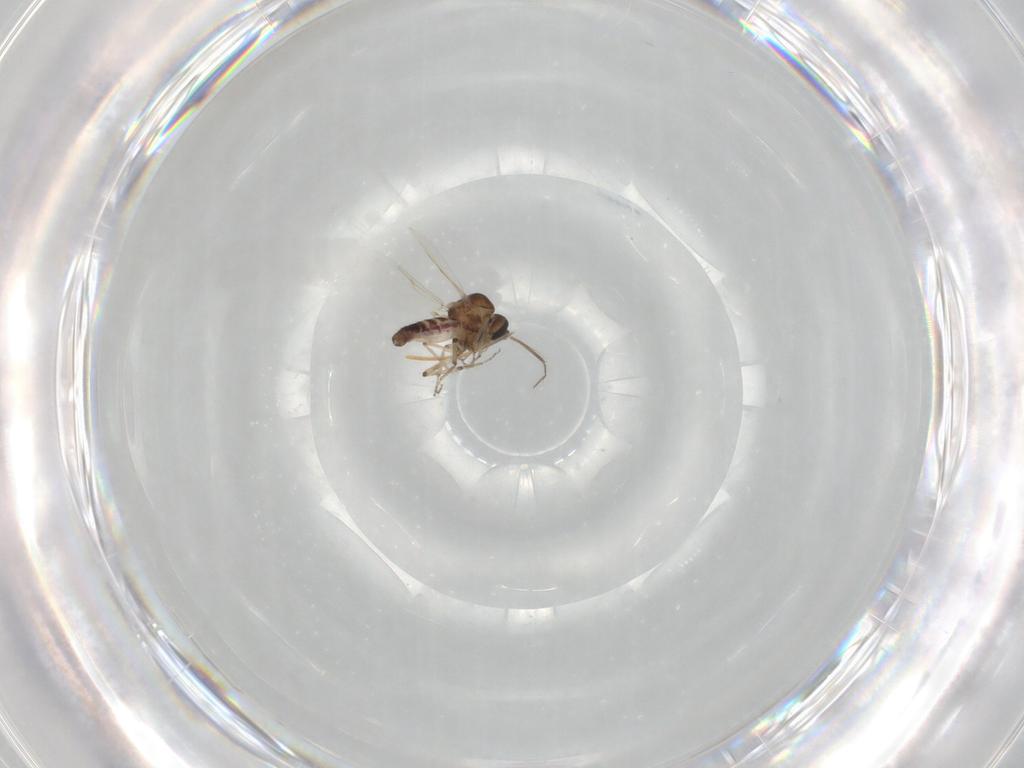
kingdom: Animalia
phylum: Arthropoda
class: Insecta
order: Diptera
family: Ceratopogonidae
